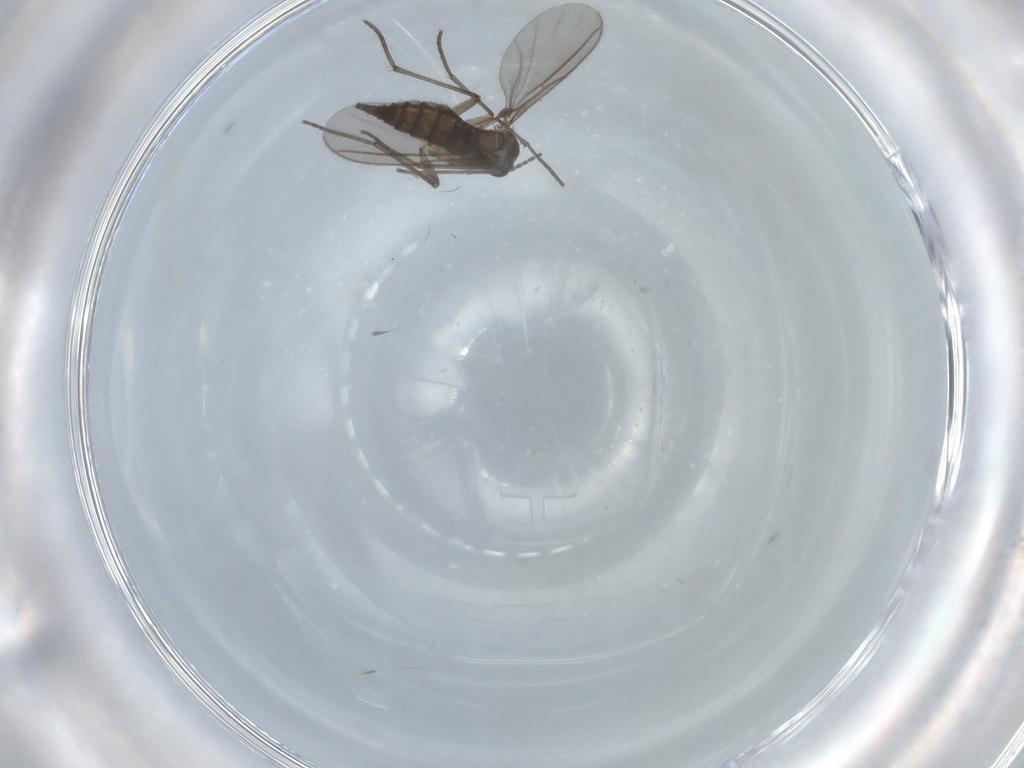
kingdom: Animalia
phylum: Arthropoda
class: Insecta
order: Diptera
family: Sciaridae
